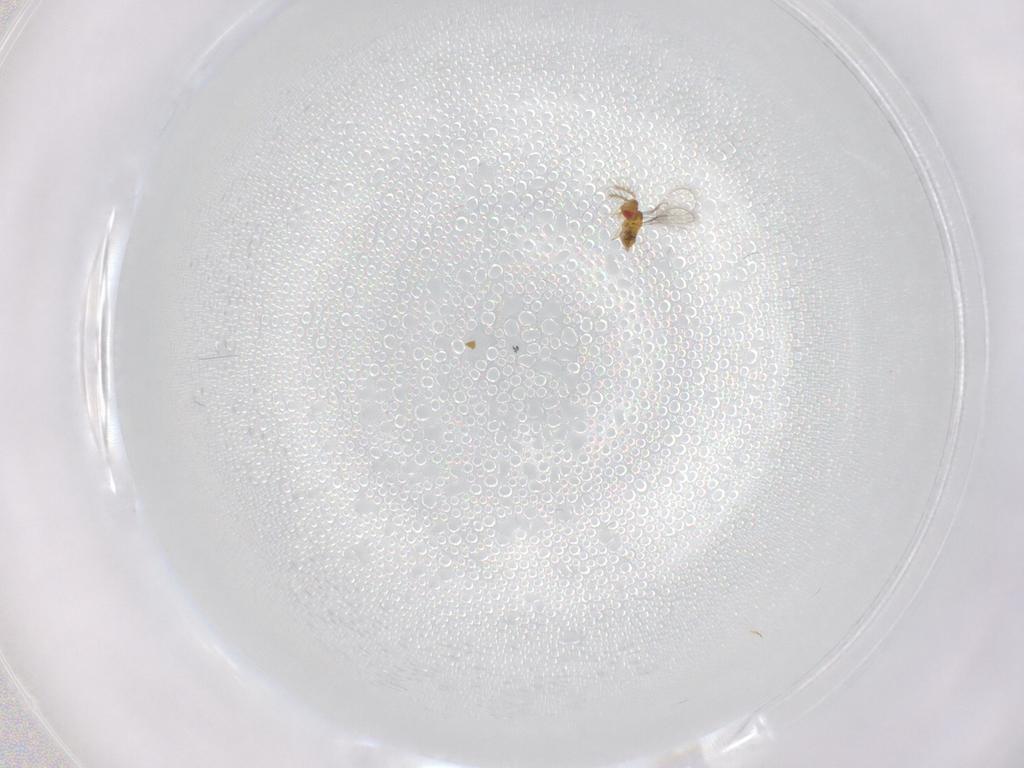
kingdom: Animalia
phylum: Arthropoda
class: Insecta
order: Hymenoptera
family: Trichogrammatidae
